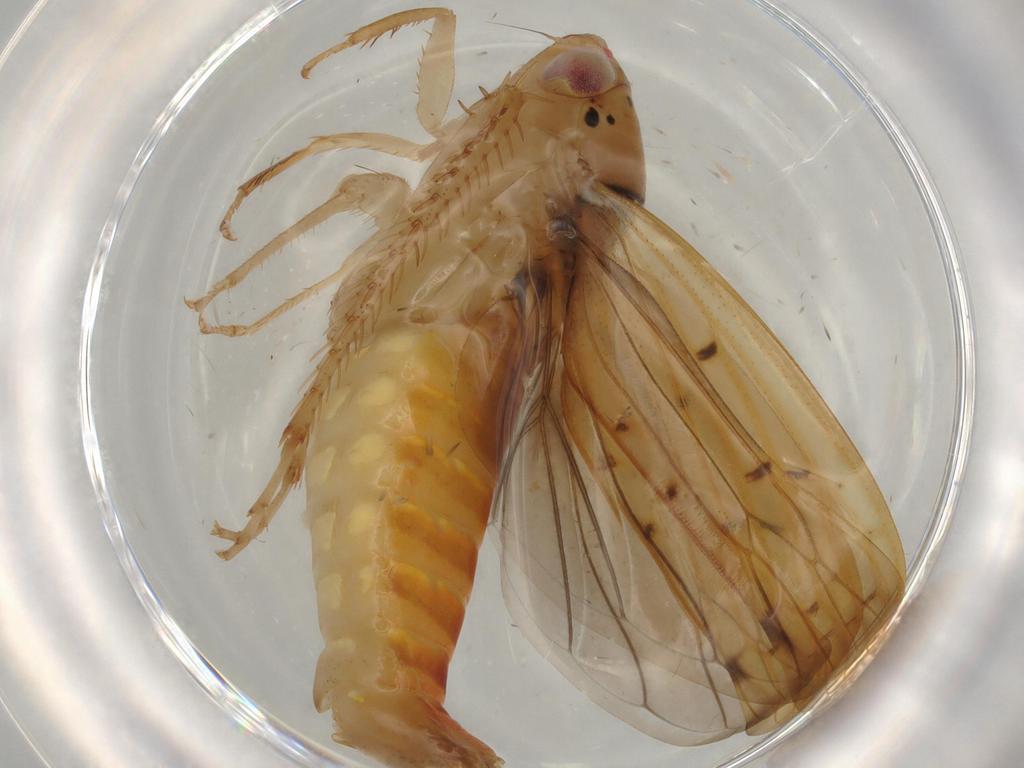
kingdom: Animalia
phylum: Arthropoda
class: Insecta
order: Hemiptera
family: Cicadellidae
